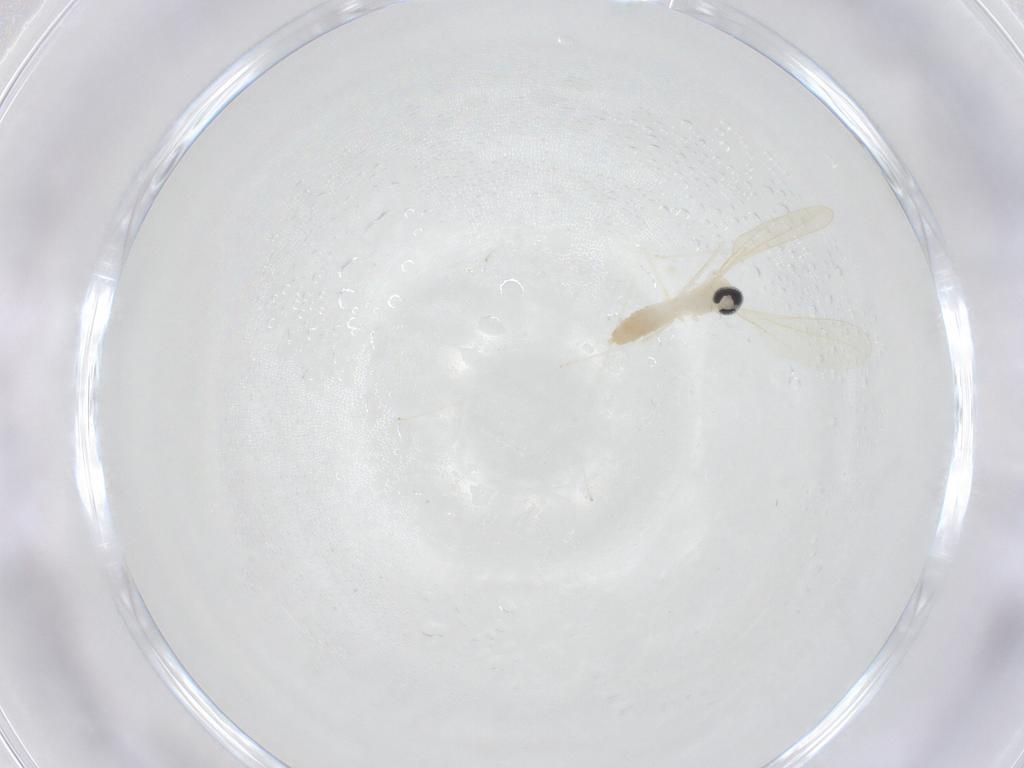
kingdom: Animalia
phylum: Arthropoda
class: Insecta
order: Diptera
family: Cecidomyiidae
